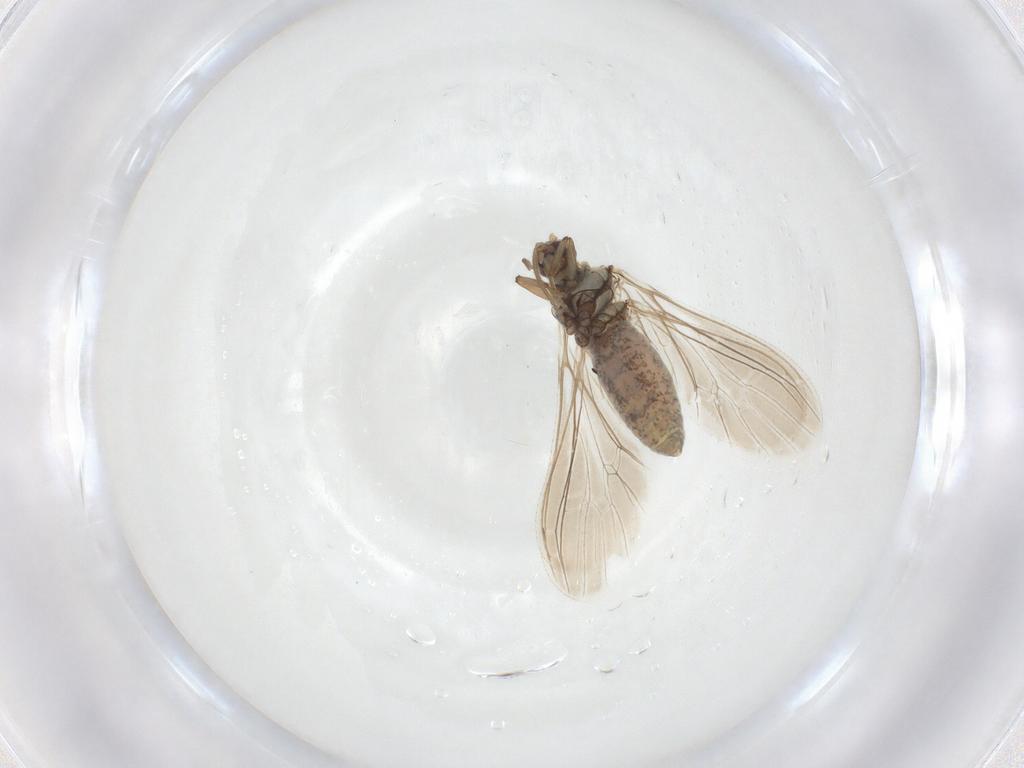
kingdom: Animalia
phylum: Arthropoda
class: Insecta
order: Neuroptera
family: Coniopterygidae
